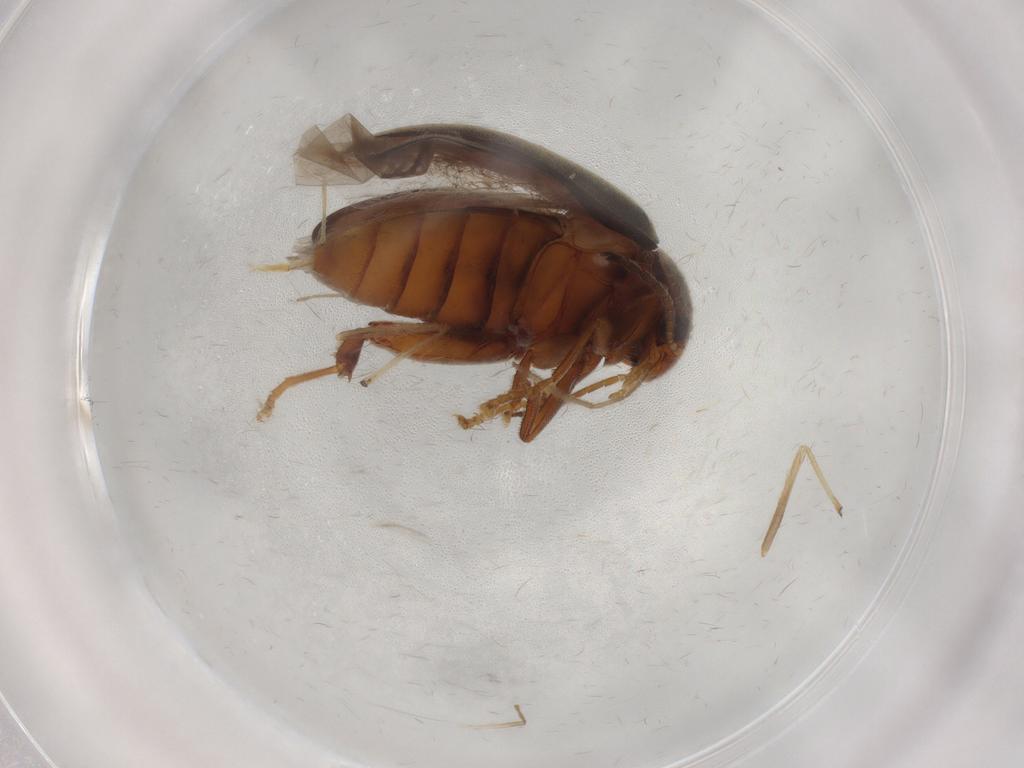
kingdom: Animalia
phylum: Arthropoda
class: Insecta
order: Coleoptera
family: Scirtidae
